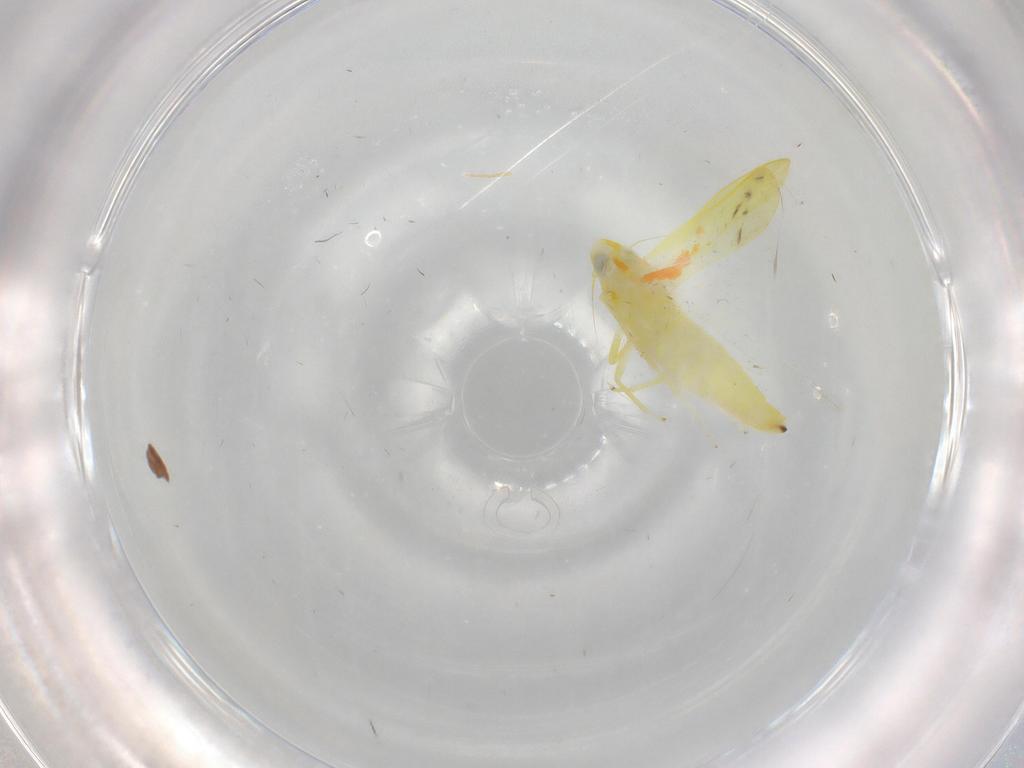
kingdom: Animalia
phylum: Arthropoda
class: Insecta
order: Hemiptera
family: Cicadellidae
